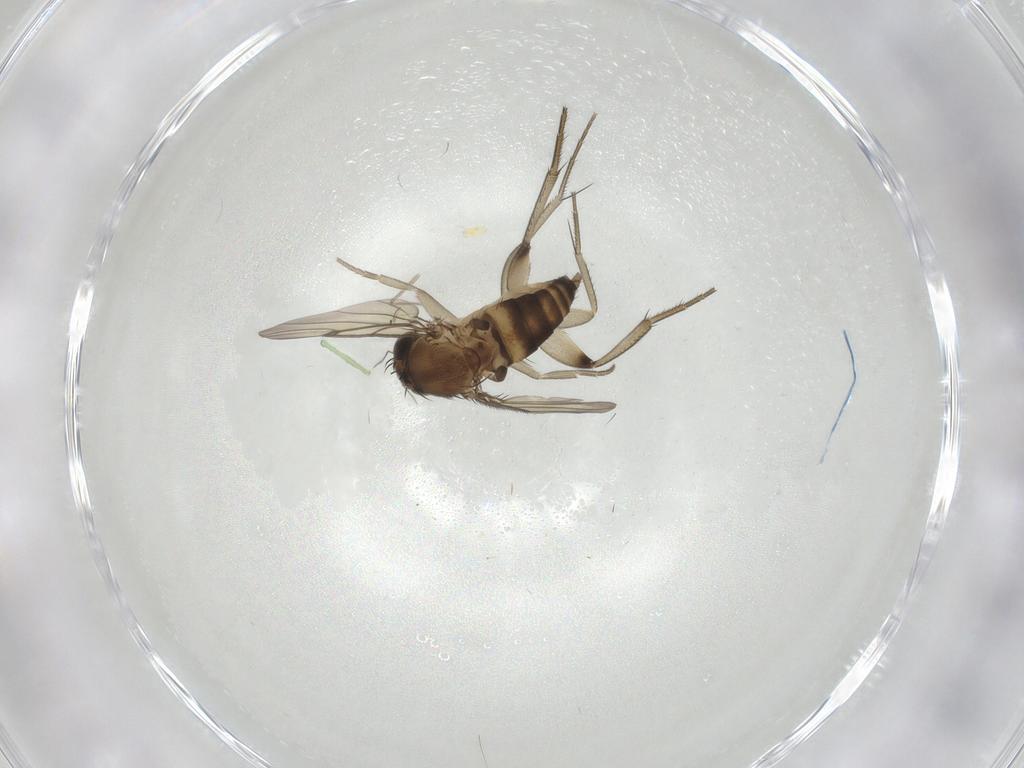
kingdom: Animalia
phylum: Arthropoda
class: Insecta
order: Diptera
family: Phoridae
